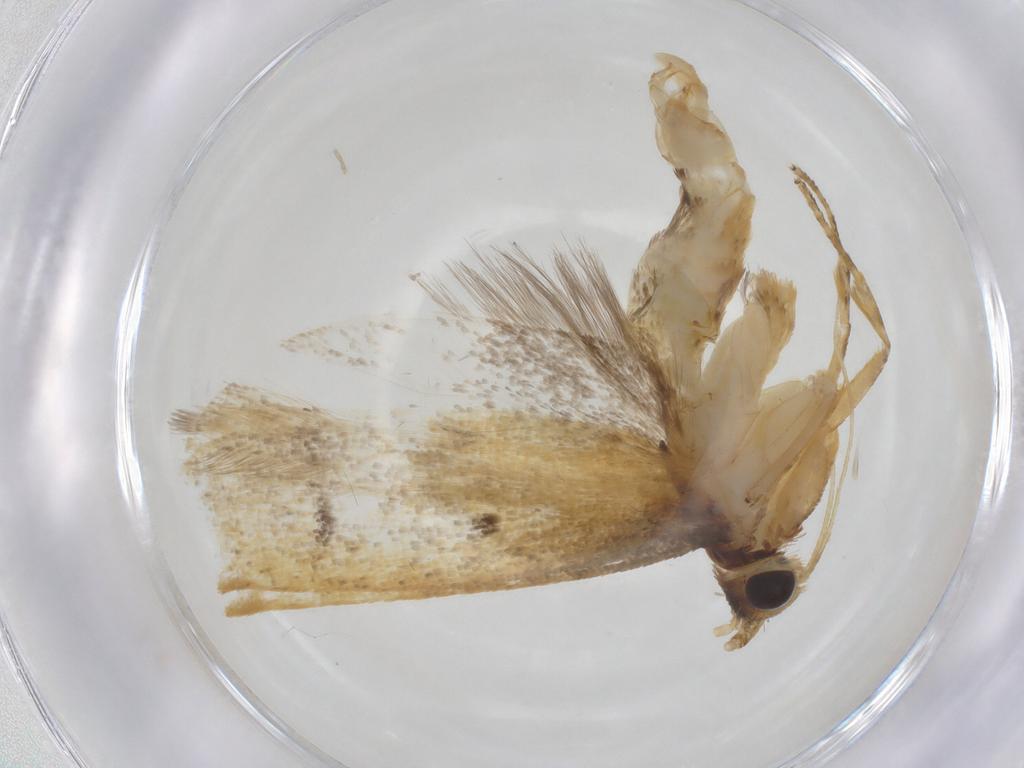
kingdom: Animalia
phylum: Arthropoda
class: Insecta
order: Lepidoptera
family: Lecithoceridae
